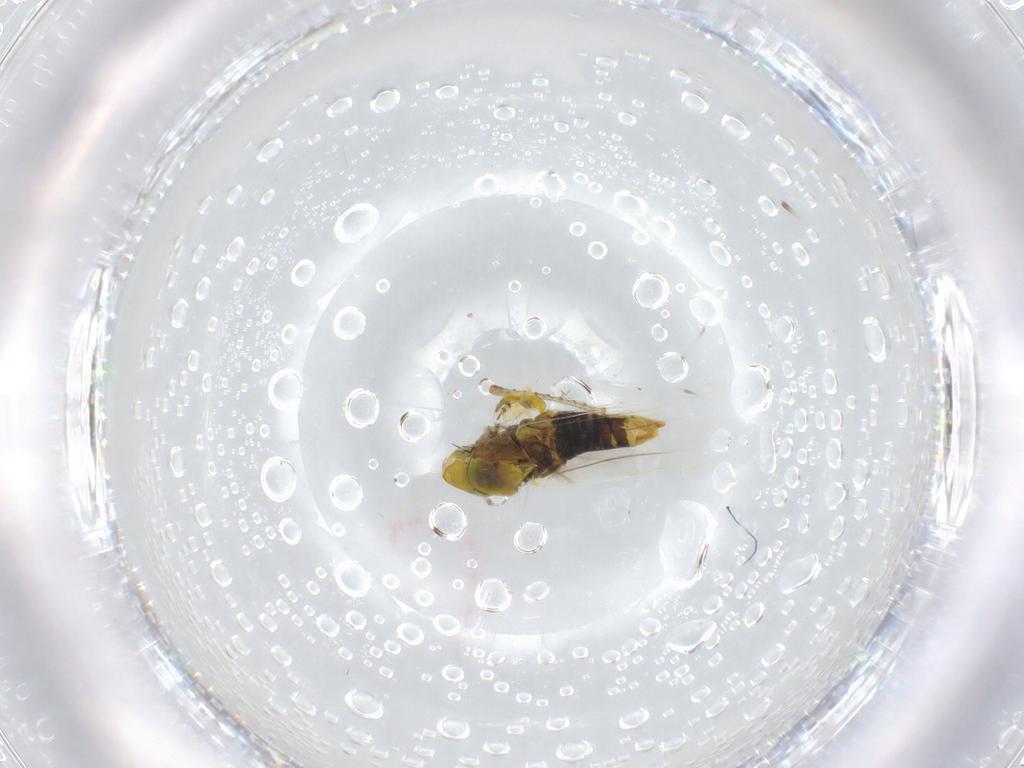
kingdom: Animalia
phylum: Arthropoda
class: Insecta
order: Hemiptera
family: Cicadellidae
